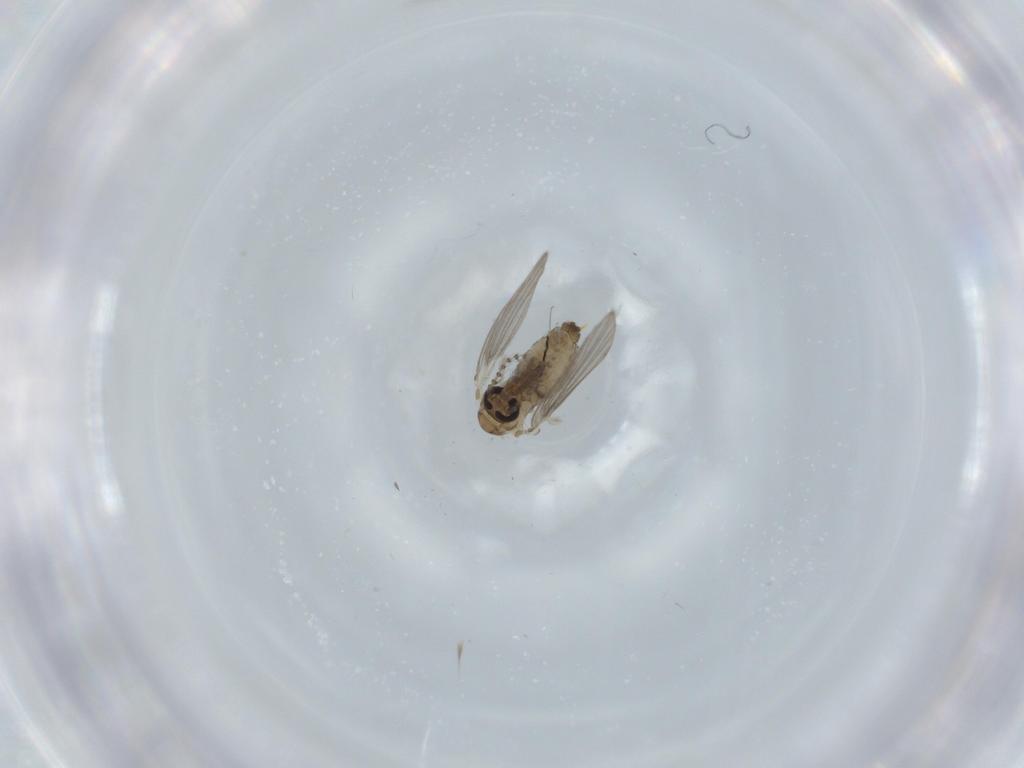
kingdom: Animalia
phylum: Arthropoda
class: Insecta
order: Diptera
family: Psychodidae
